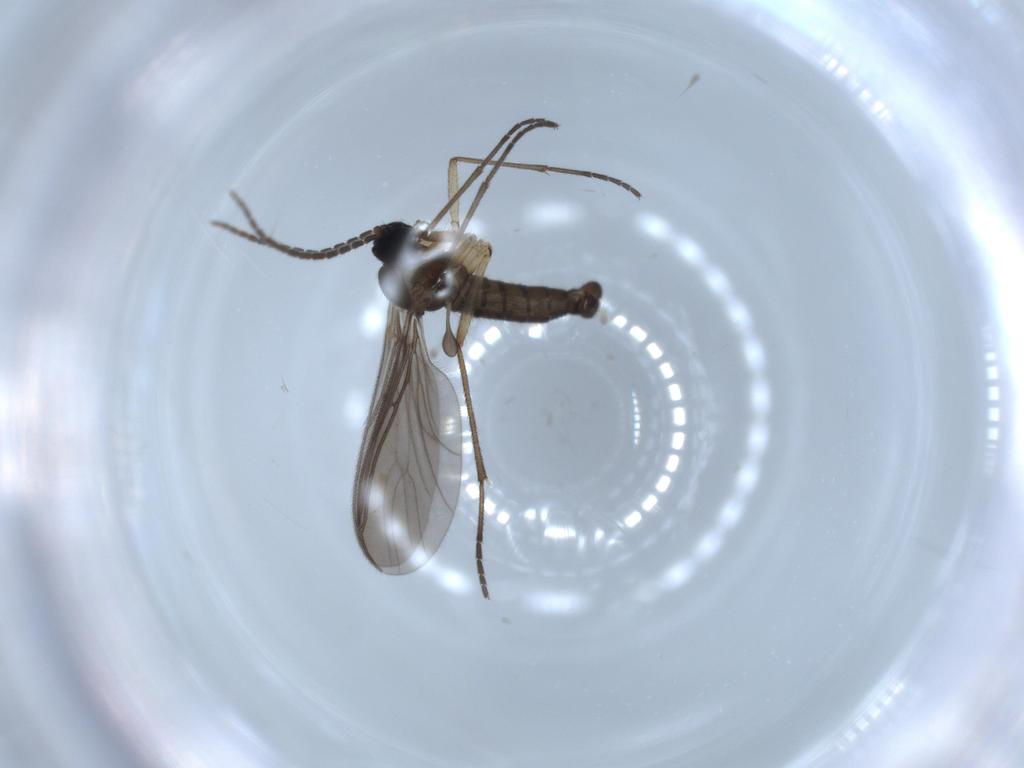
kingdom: Animalia
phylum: Arthropoda
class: Insecta
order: Diptera
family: Sciaridae
